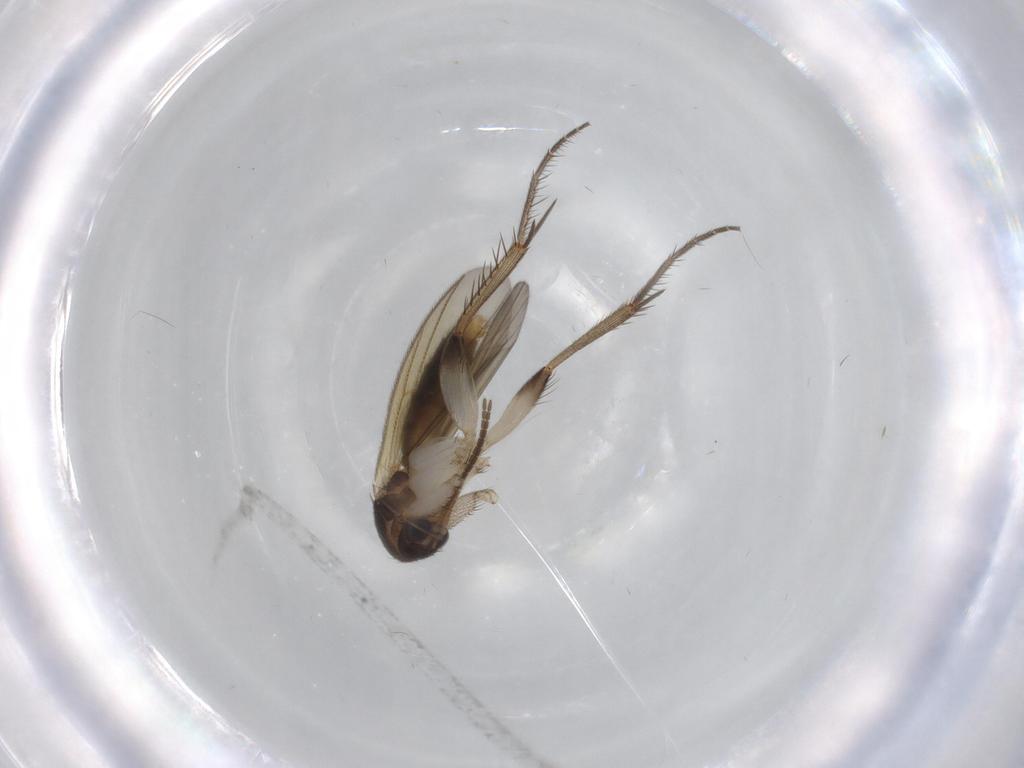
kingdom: Animalia
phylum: Arthropoda
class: Insecta
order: Diptera
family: Mycetophilidae
